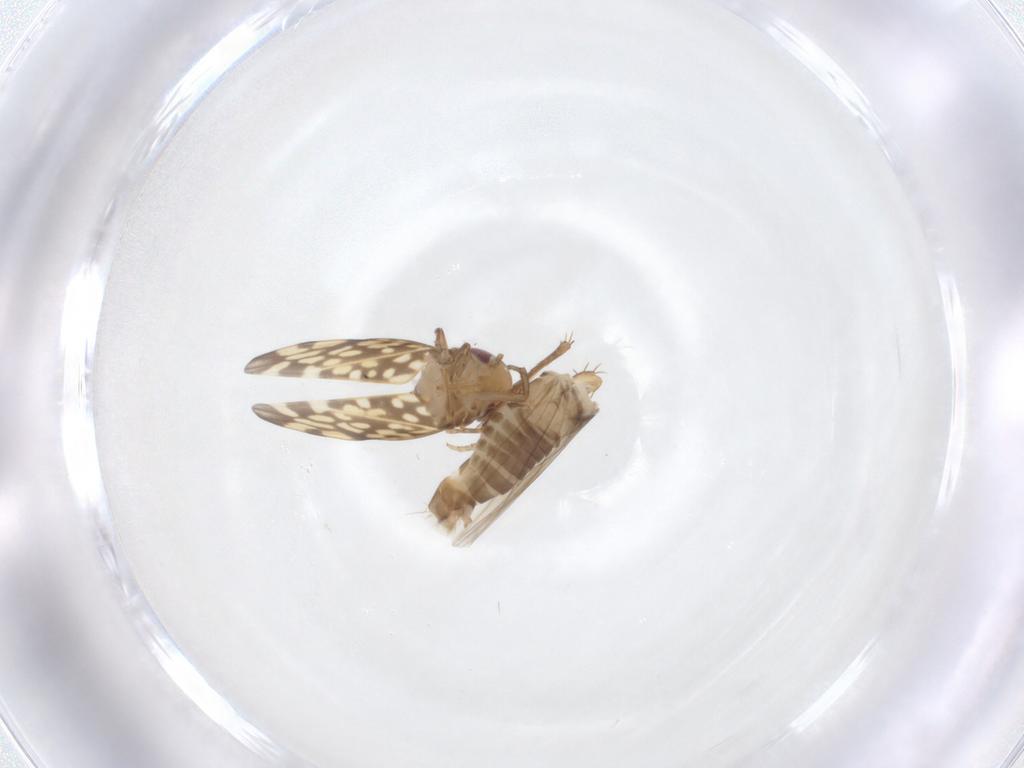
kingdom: Animalia
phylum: Arthropoda
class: Insecta
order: Hemiptera
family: Cicadellidae
